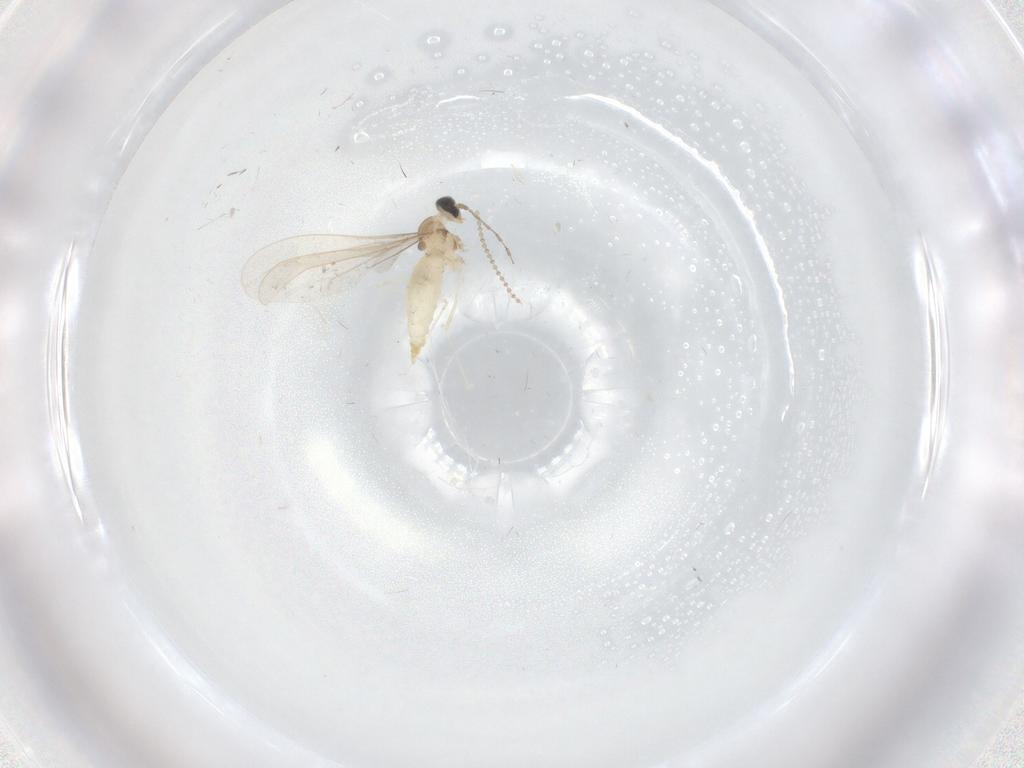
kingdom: Animalia
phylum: Arthropoda
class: Insecta
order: Diptera
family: Cecidomyiidae
